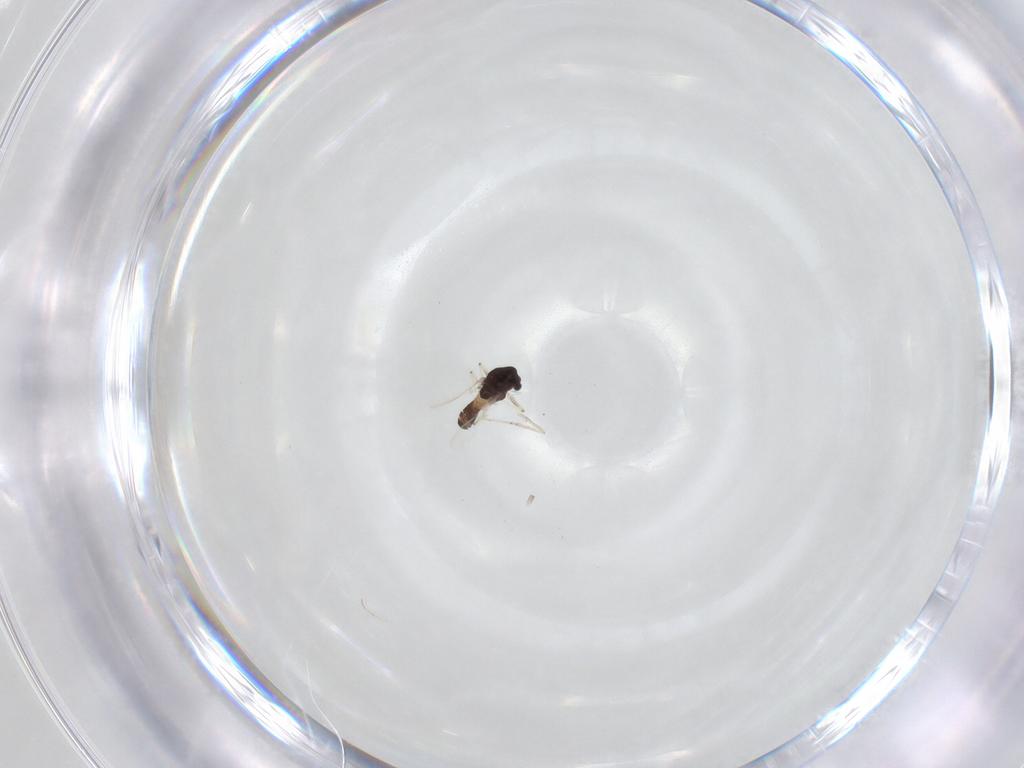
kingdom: Animalia
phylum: Arthropoda
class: Insecta
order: Diptera
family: Chironomidae
